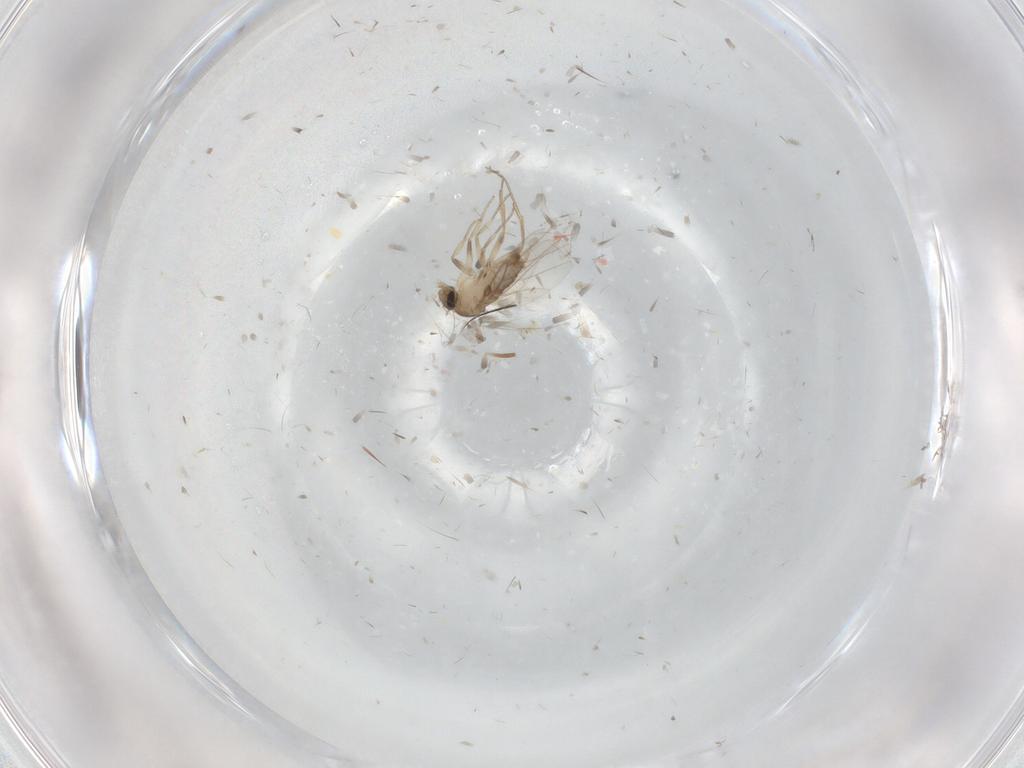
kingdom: Animalia
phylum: Arthropoda
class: Insecta
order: Diptera
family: Phoridae
